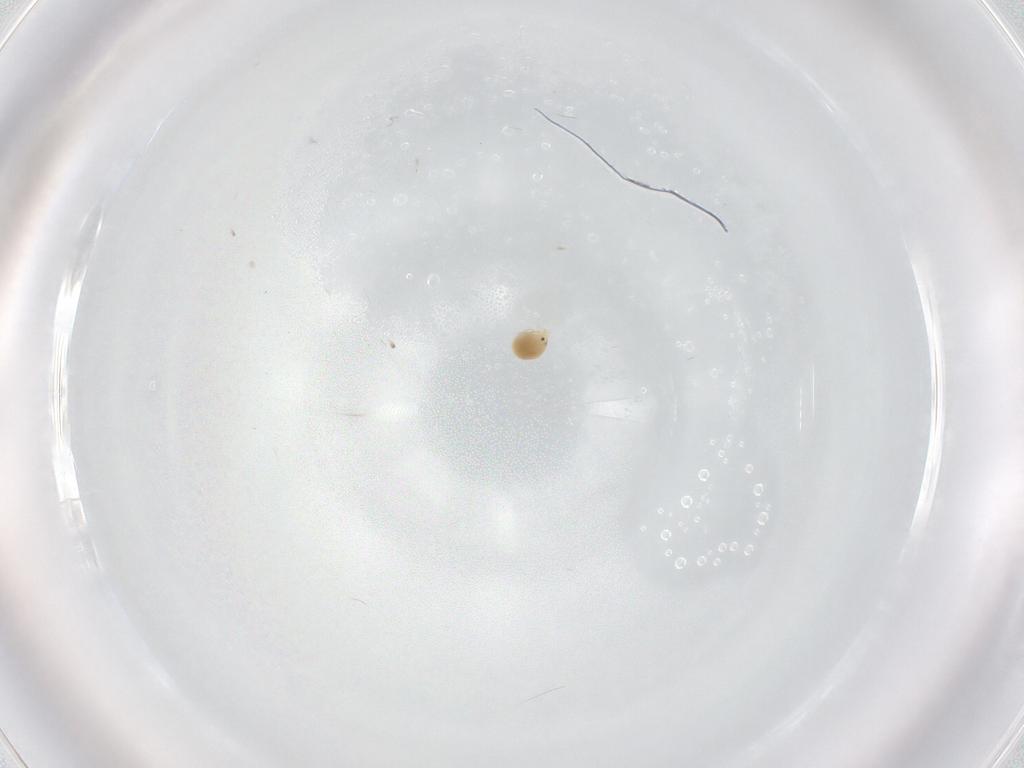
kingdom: Animalia
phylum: Arthropoda
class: Arachnida
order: Trombidiformes
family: Unionicolidae
